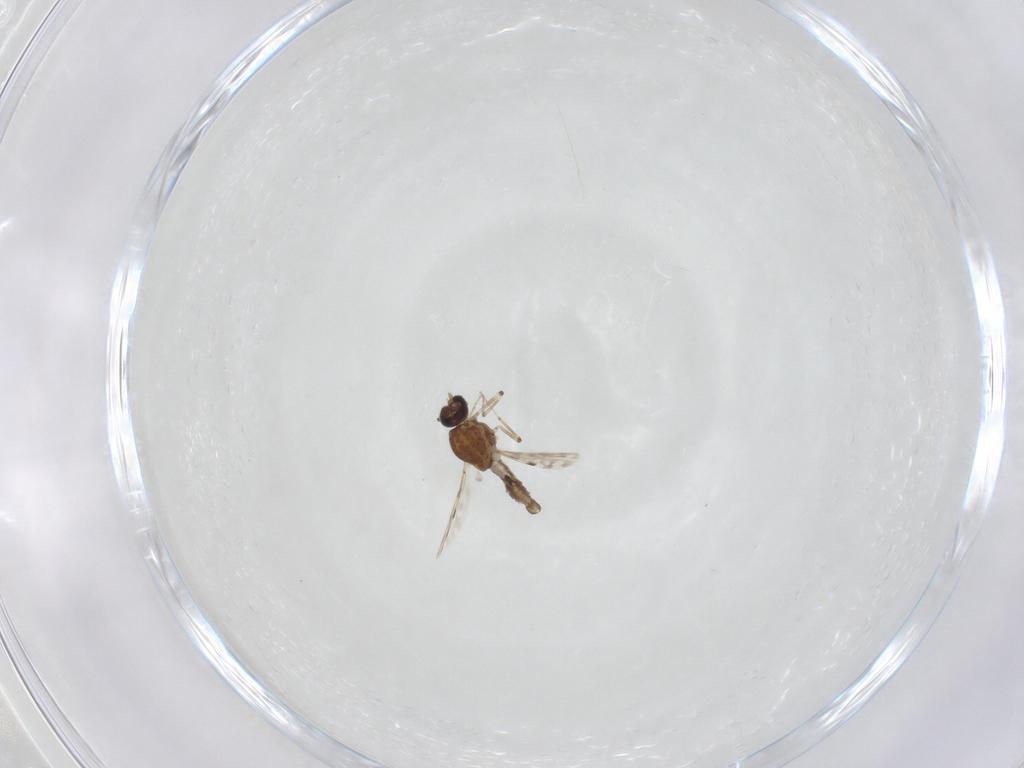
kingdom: Animalia
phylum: Arthropoda
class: Insecta
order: Diptera
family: Ceratopogonidae
